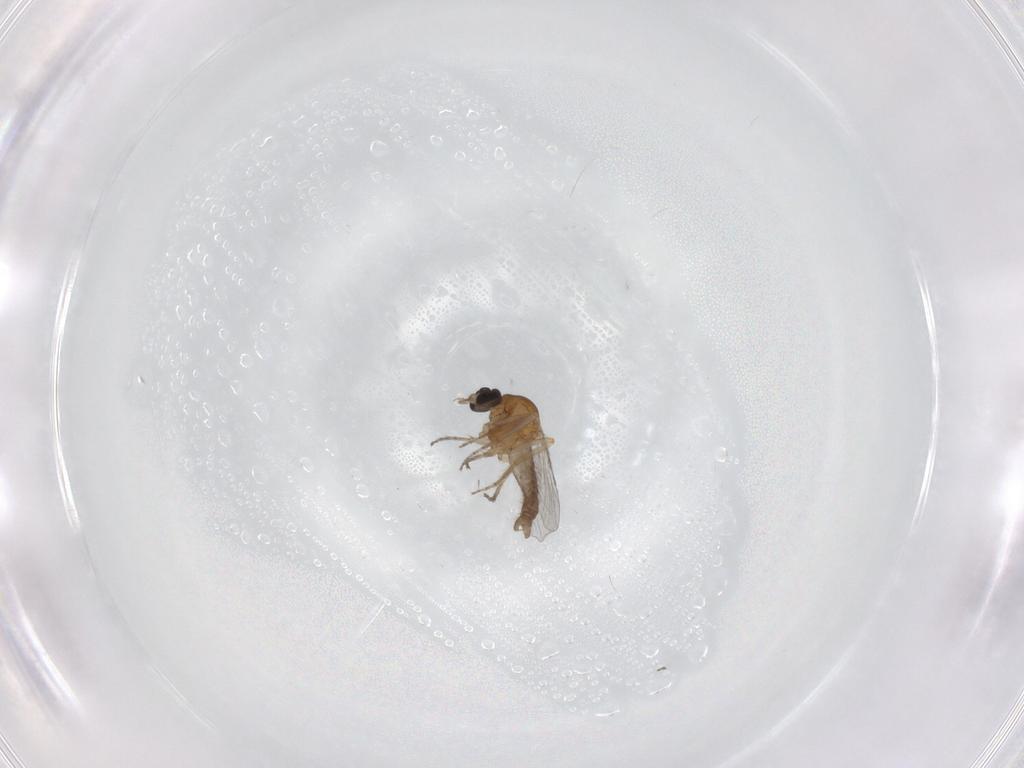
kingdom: Animalia
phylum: Arthropoda
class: Insecta
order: Diptera
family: Ceratopogonidae
